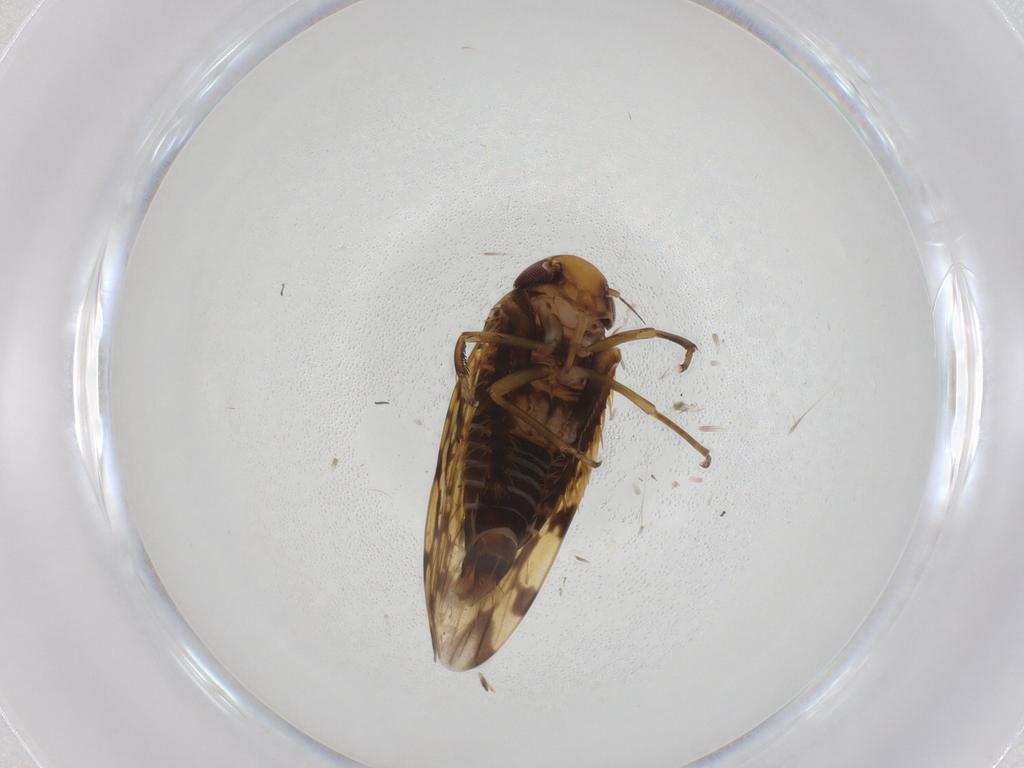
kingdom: Animalia
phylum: Arthropoda
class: Insecta
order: Hemiptera
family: Cicadellidae
